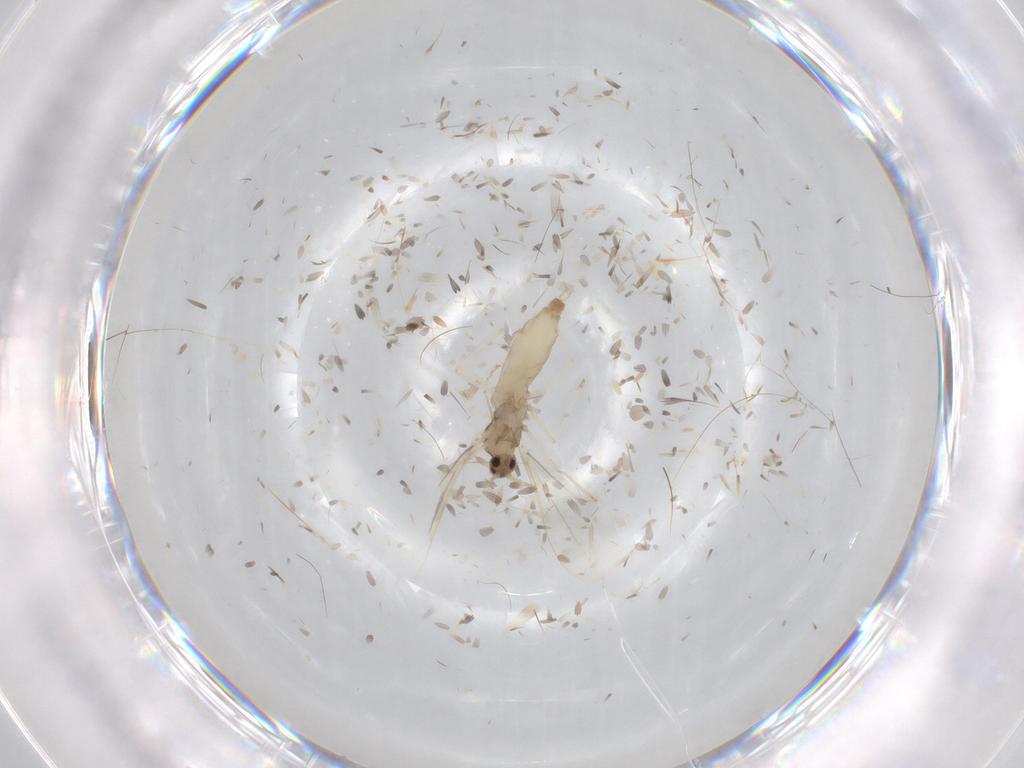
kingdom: Animalia
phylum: Arthropoda
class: Insecta
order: Diptera
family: Cecidomyiidae
